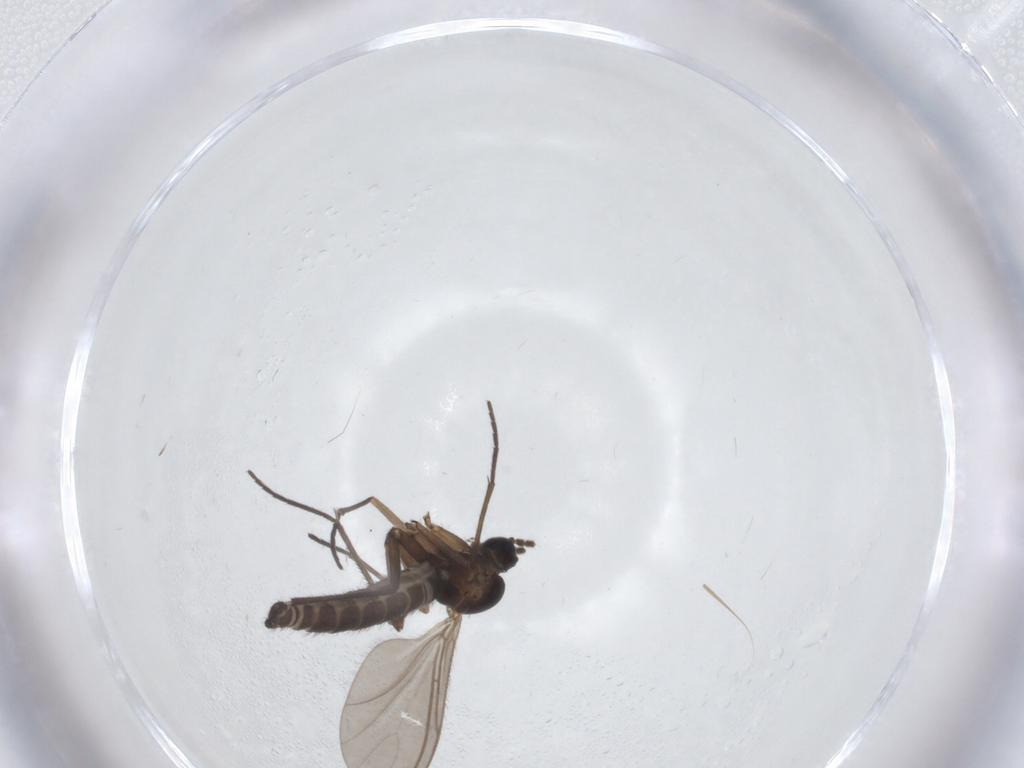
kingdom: Animalia
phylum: Arthropoda
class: Insecta
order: Diptera
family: Sciaridae
